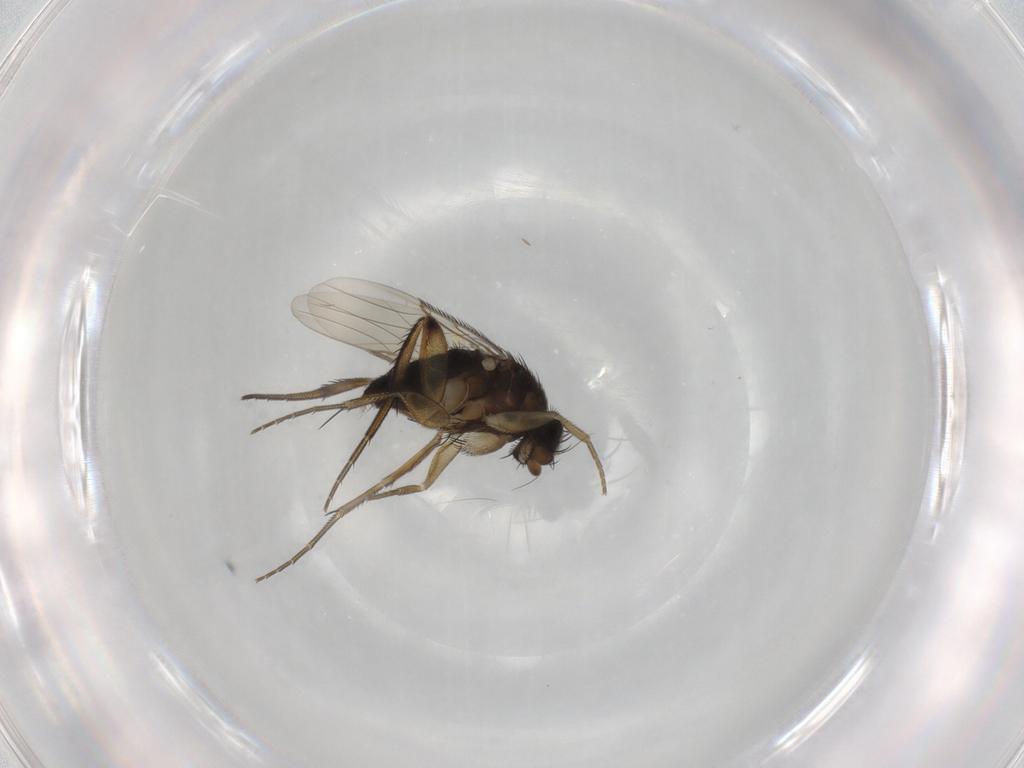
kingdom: Animalia
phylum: Arthropoda
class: Insecta
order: Diptera
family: Phoridae
